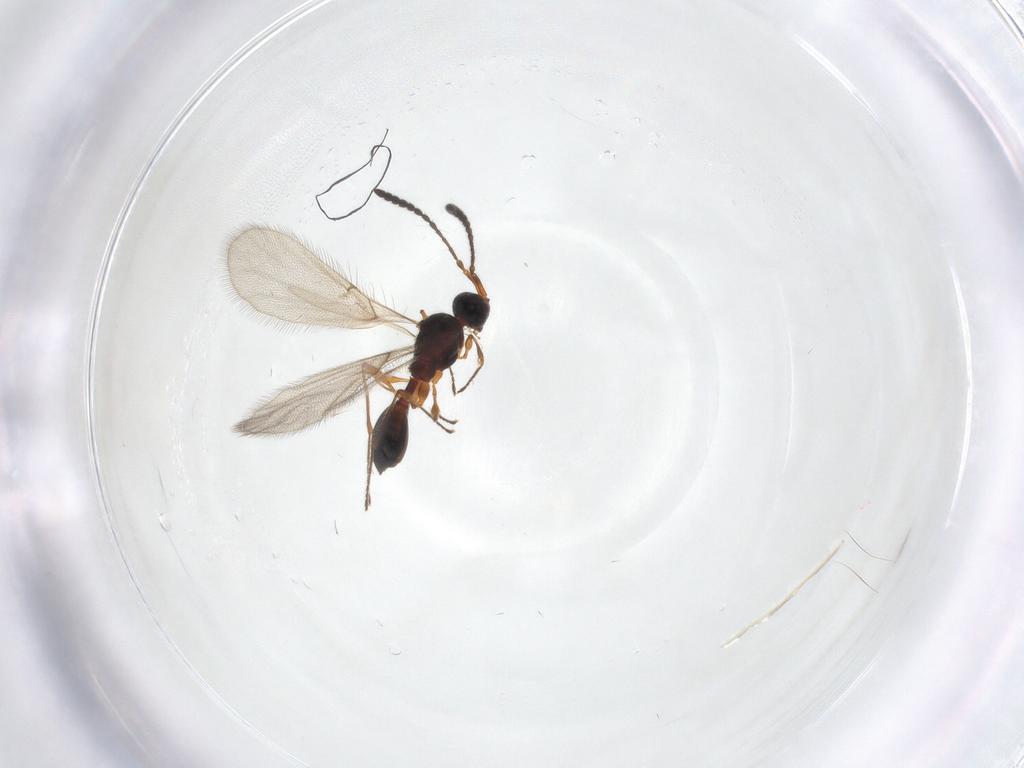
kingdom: Animalia
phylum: Arthropoda
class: Insecta
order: Hymenoptera
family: Diapriidae
